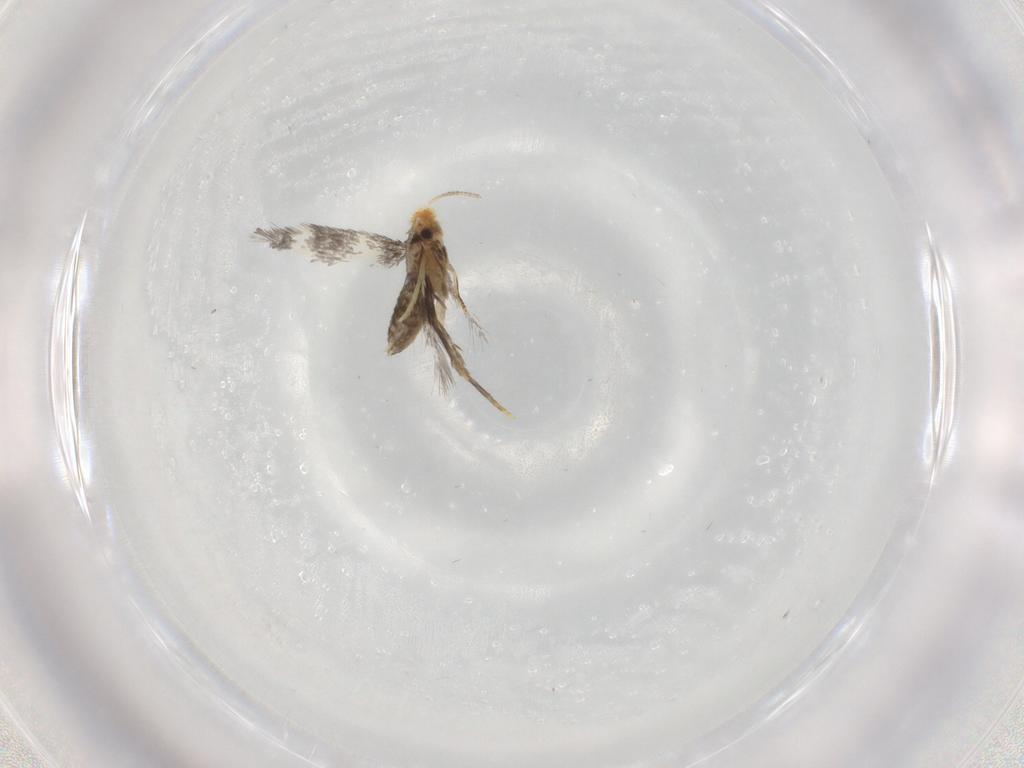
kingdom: Animalia
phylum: Arthropoda
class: Insecta
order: Lepidoptera
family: Nepticulidae
